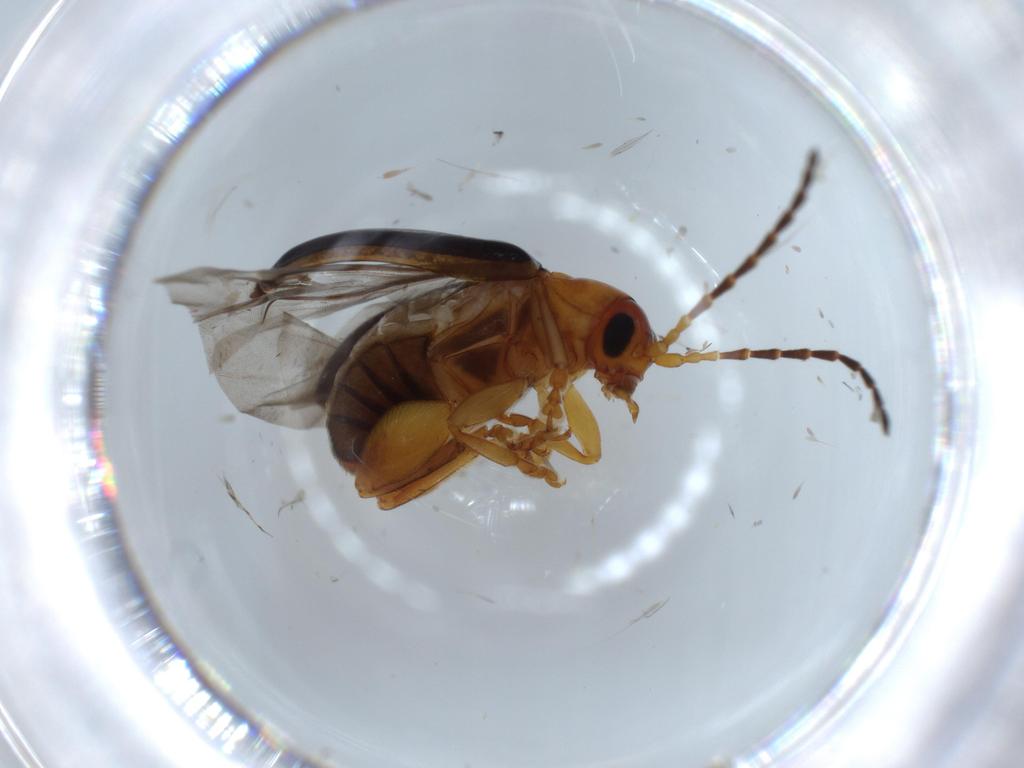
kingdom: Animalia
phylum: Arthropoda
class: Insecta
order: Coleoptera
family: Chrysomelidae
